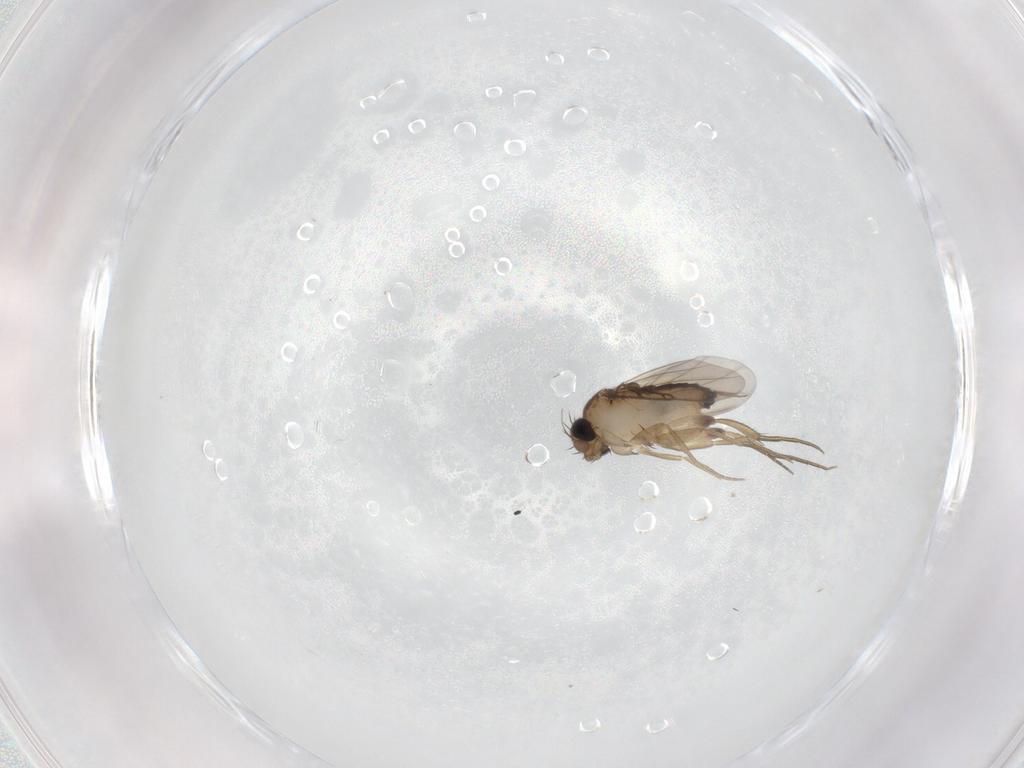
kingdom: Animalia
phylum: Arthropoda
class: Insecta
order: Diptera
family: Phoridae
